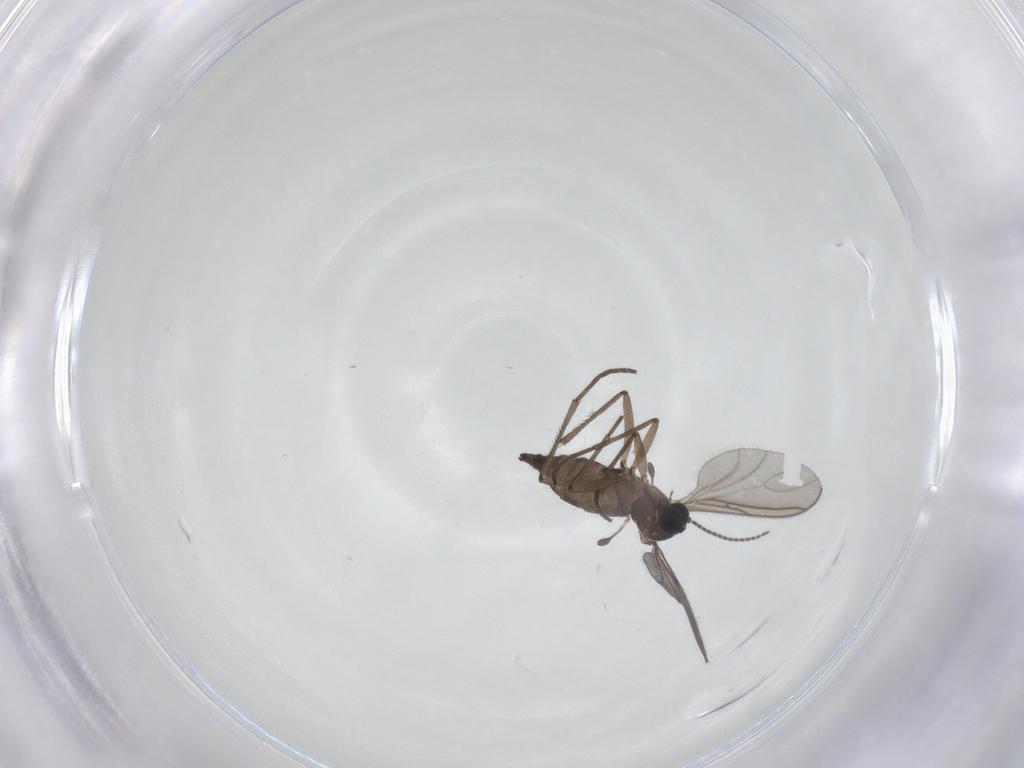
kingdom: Animalia
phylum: Arthropoda
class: Insecta
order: Diptera
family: Sciaridae
